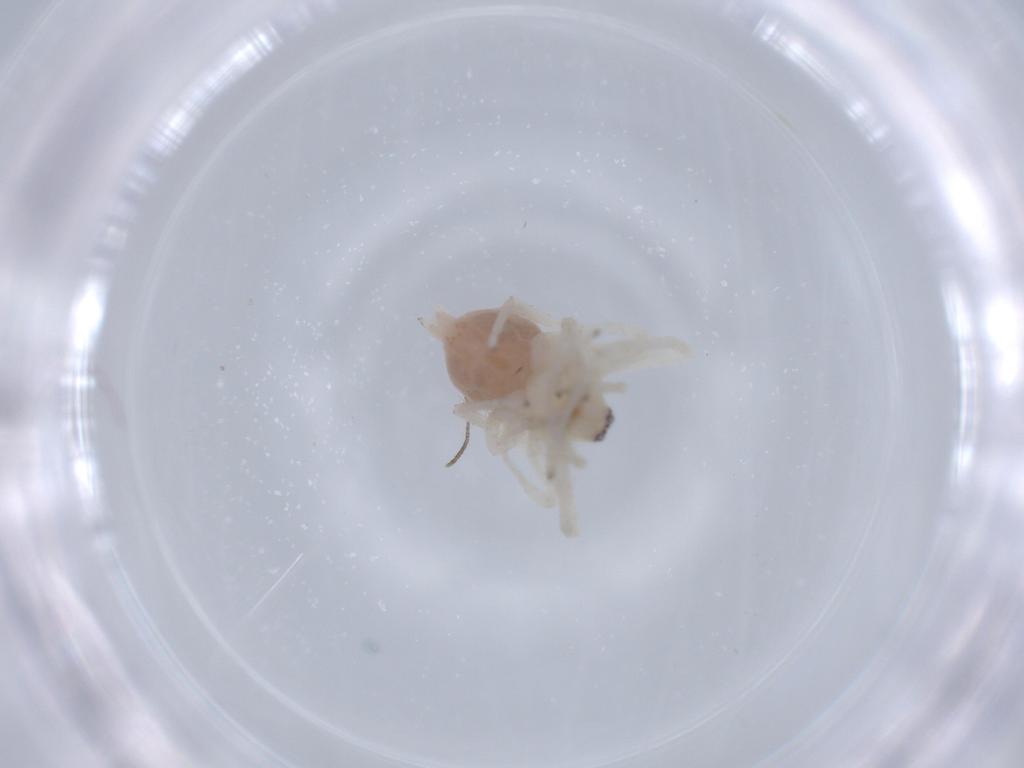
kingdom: Animalia
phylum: Arthropoda
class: Arachnida
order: Araneae
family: Anyphaenidae
